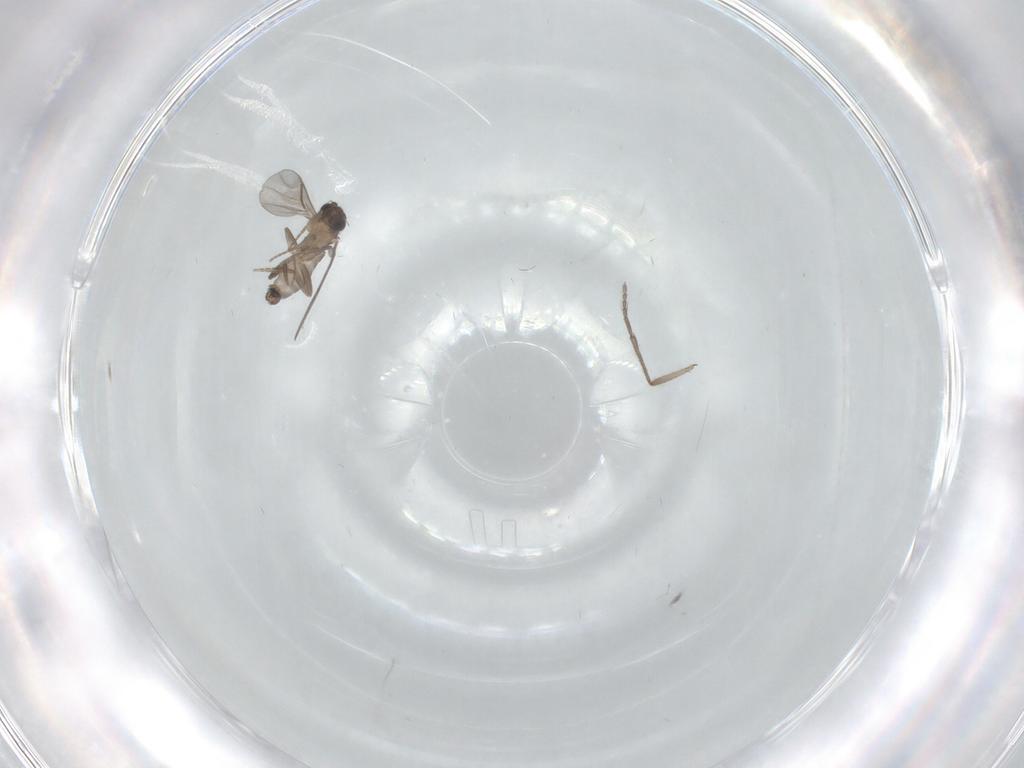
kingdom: Animalia
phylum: Arthropoda
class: Insecta
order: Diptera
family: Sciaridae
